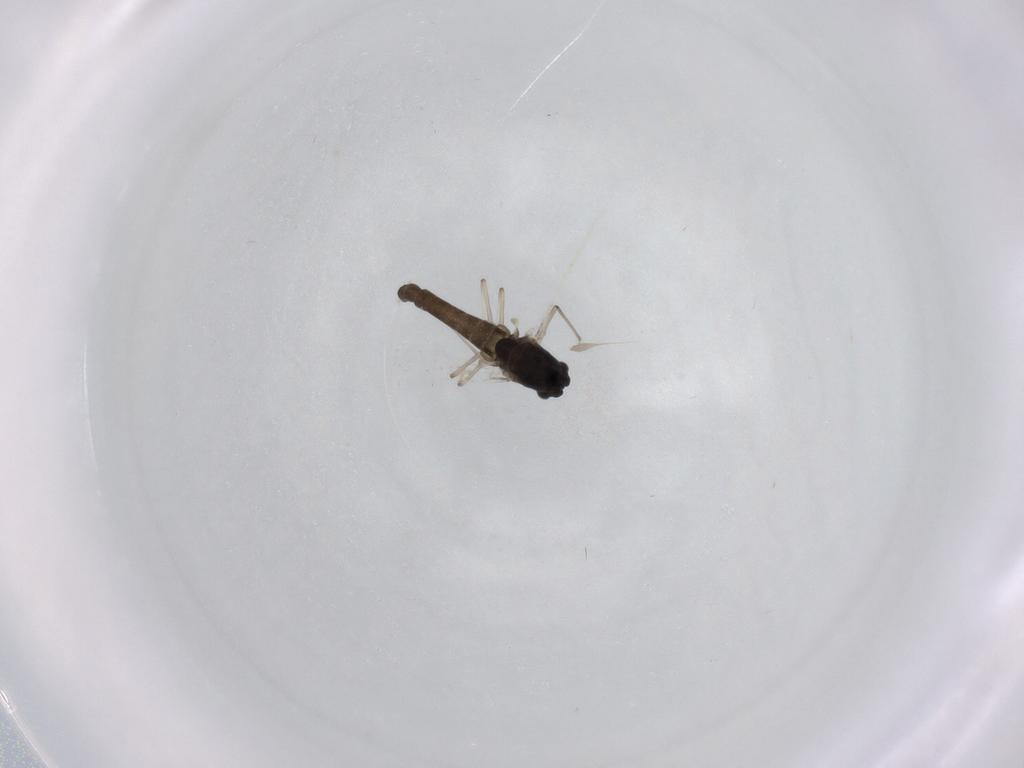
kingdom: Animalia
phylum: Arthropoda
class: Insecta
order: Diptera
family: Chironomidae
